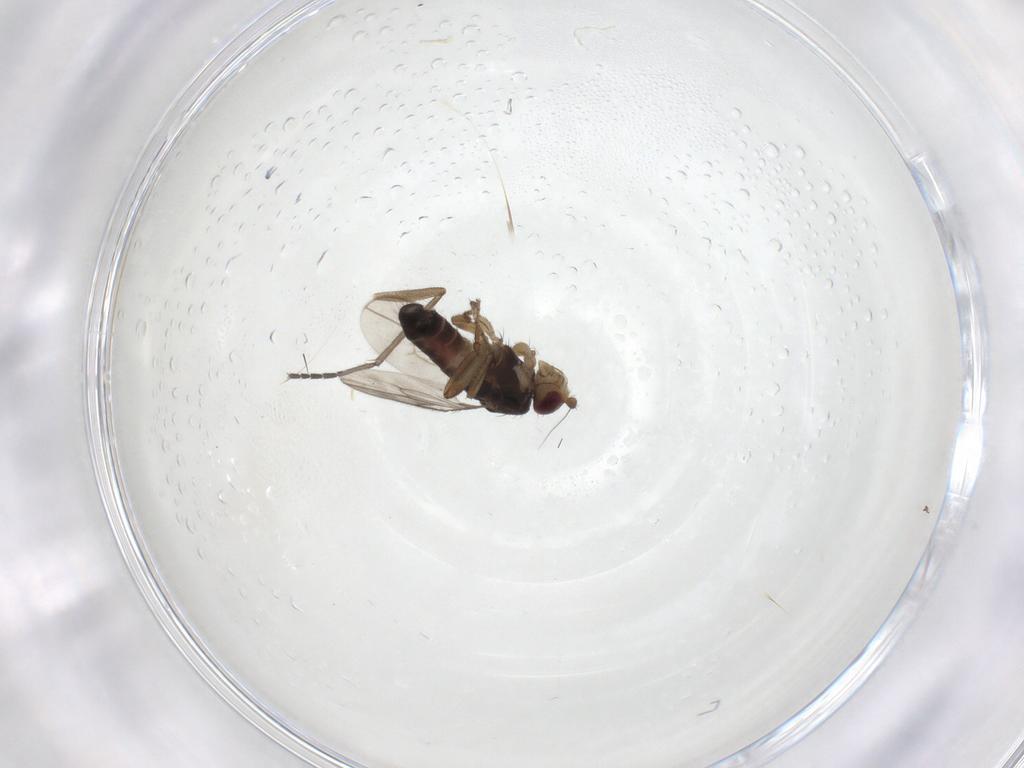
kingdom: Animalia
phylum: Arthropoda
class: Insecta
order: Diptera
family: Sphaeroceridae
